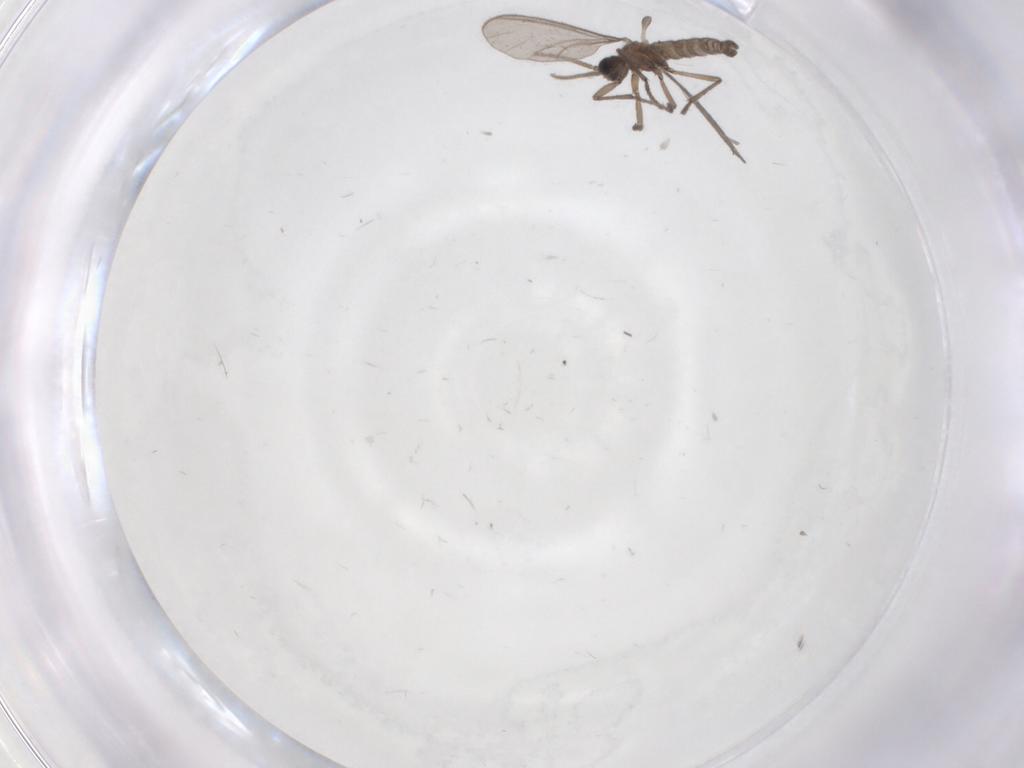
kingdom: Animalia
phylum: Arthropoda
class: Insecta
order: Diptera
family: Sciaridae
